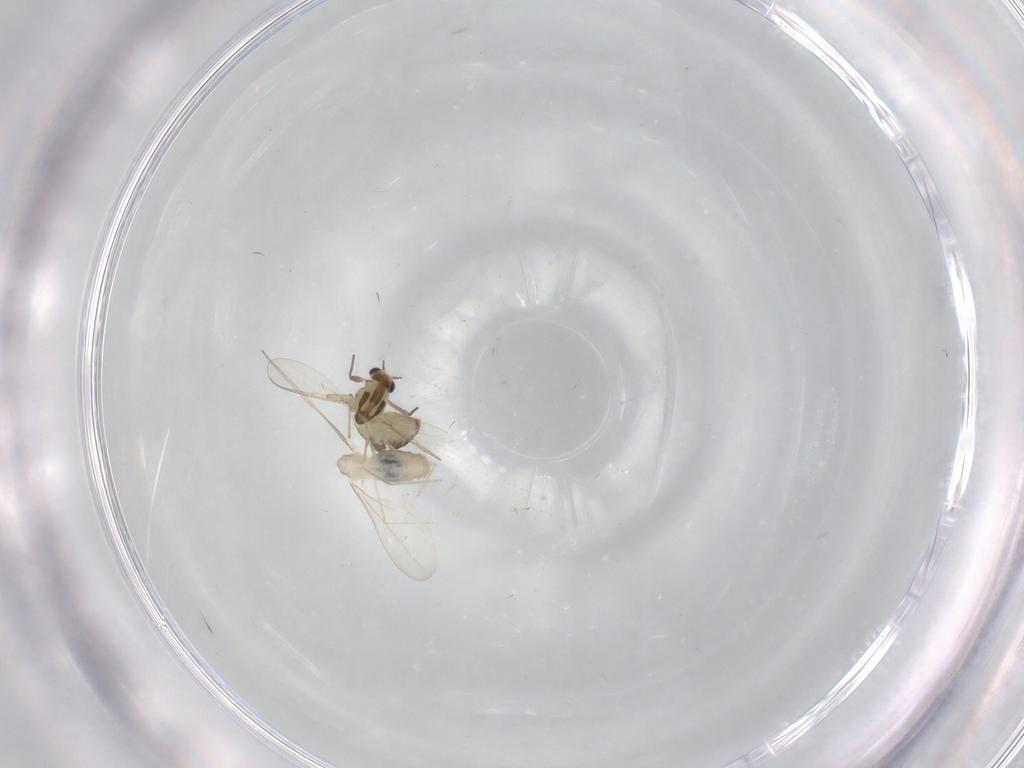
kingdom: Animalia
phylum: Arthropoda
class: Insecta
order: Diptera
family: Chironomidae
